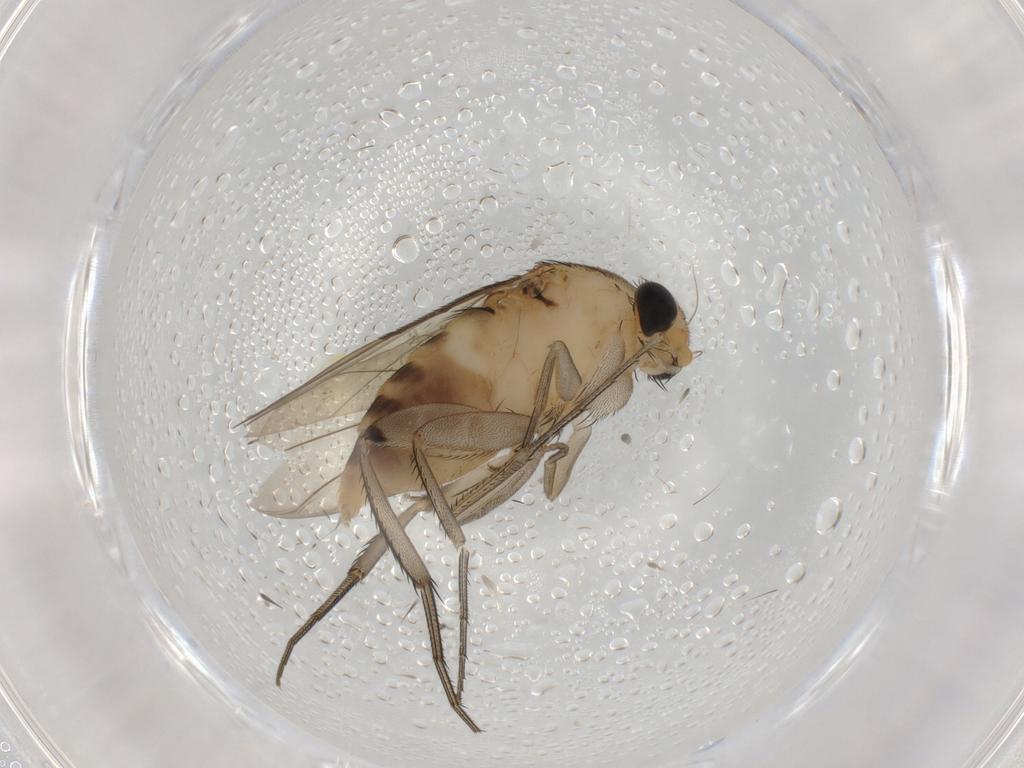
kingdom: Animalia
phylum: Arthropoda
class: Insecta
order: Diptera
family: Phoridae
